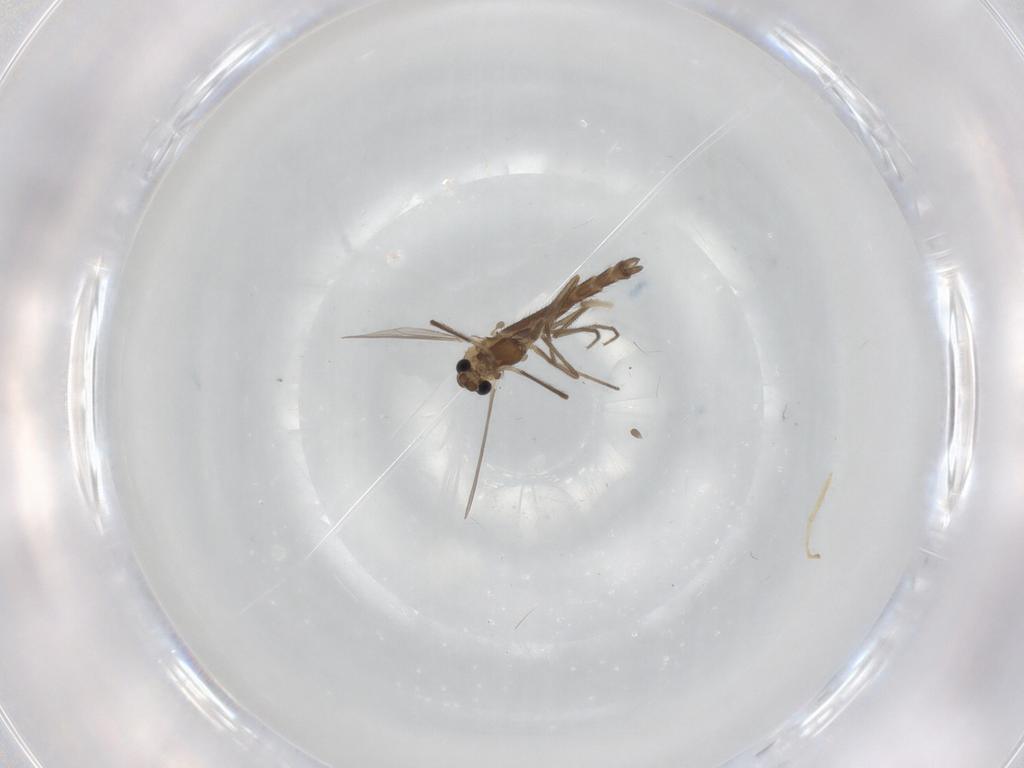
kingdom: Animalia
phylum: Arthropoda
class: Insecta
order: Diptera
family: Chironomidae
